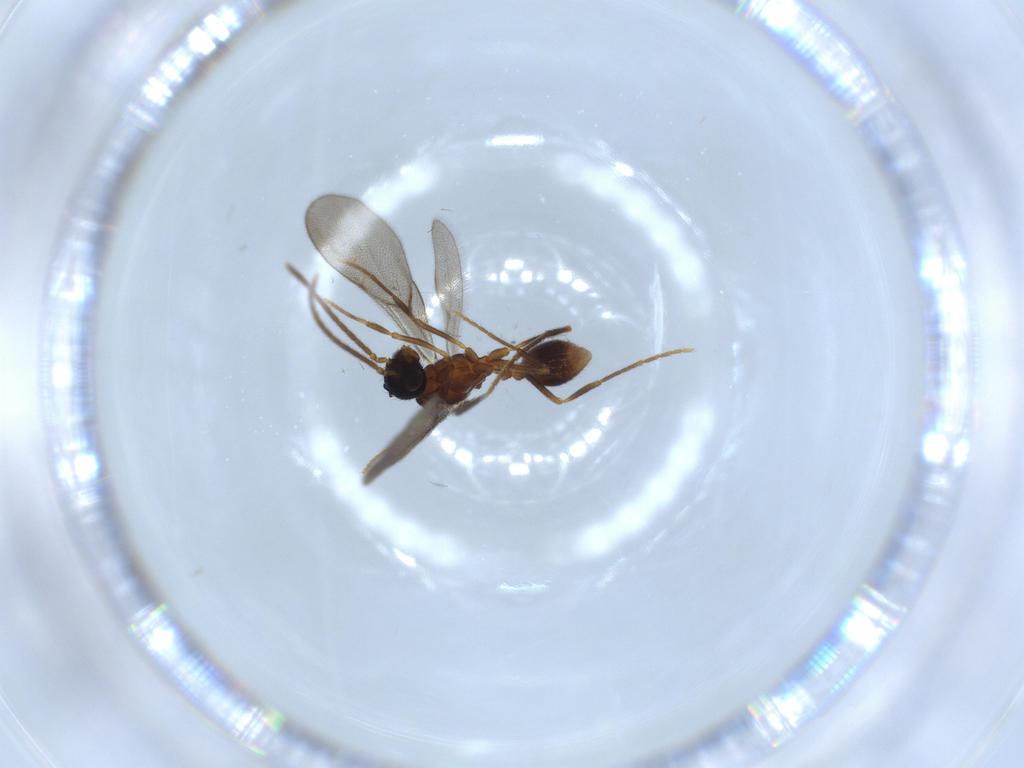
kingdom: Animalia
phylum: Arthropoda
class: Insecta
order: Hymenoptera
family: Formicidae
